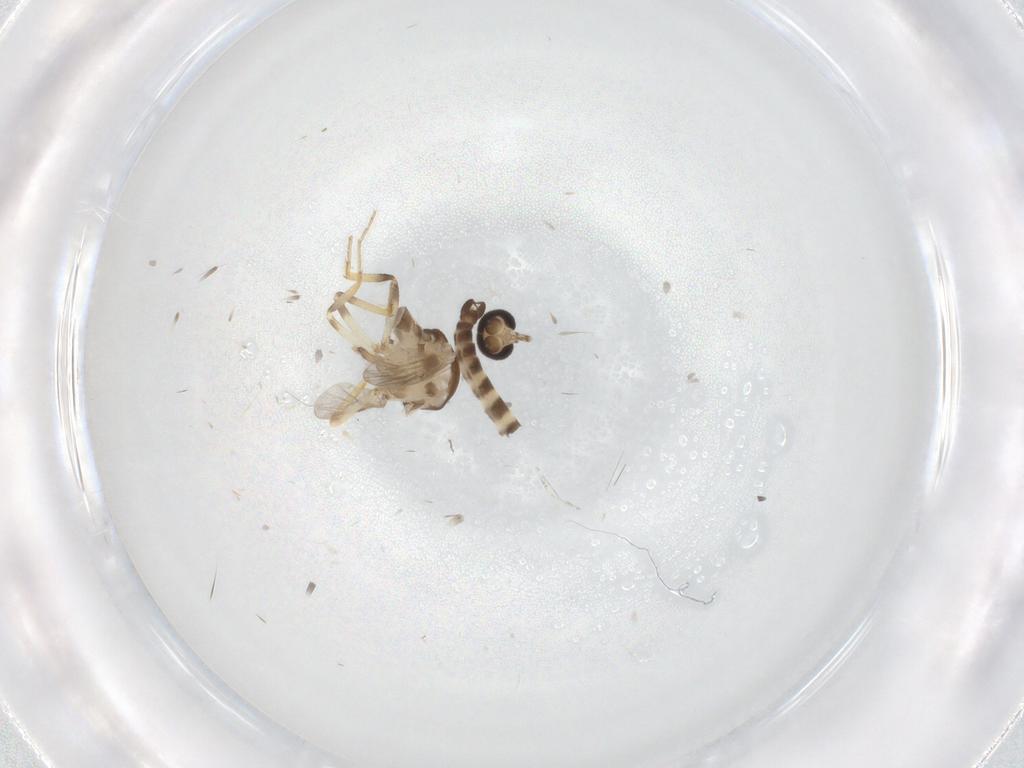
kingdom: Animalia
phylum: Arthropoda
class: Insecta
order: Diptera
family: Ceratopogonidae
